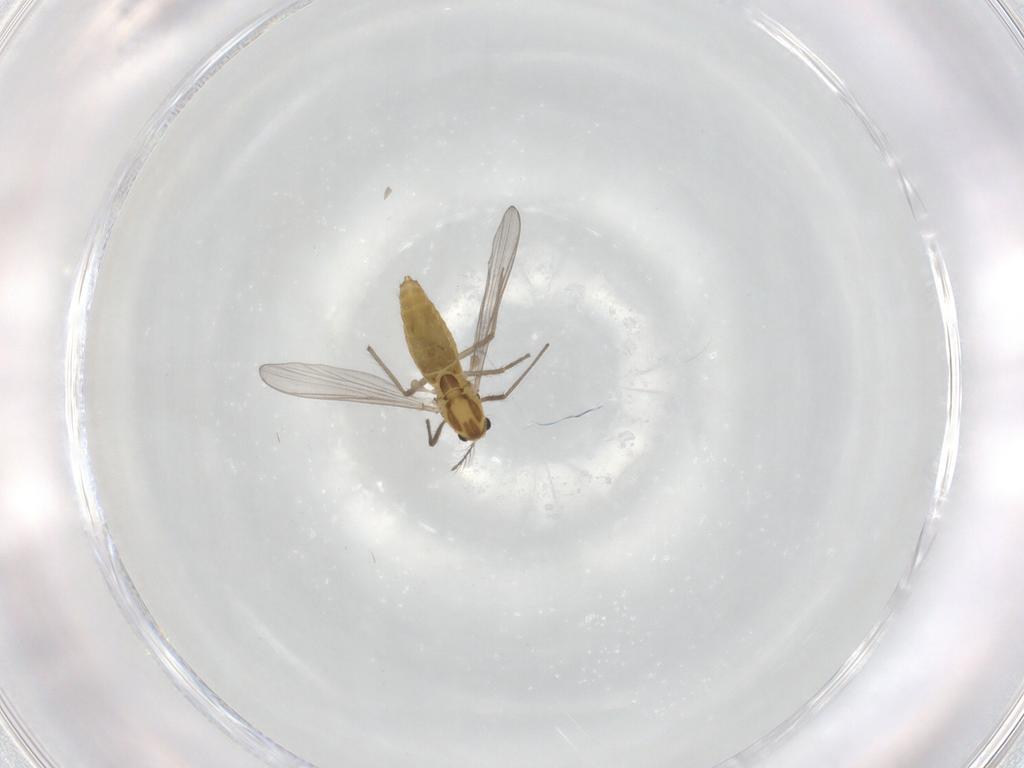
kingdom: Animalia
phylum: Arthropoda
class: Insecta
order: Diptera
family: Chironomidae
